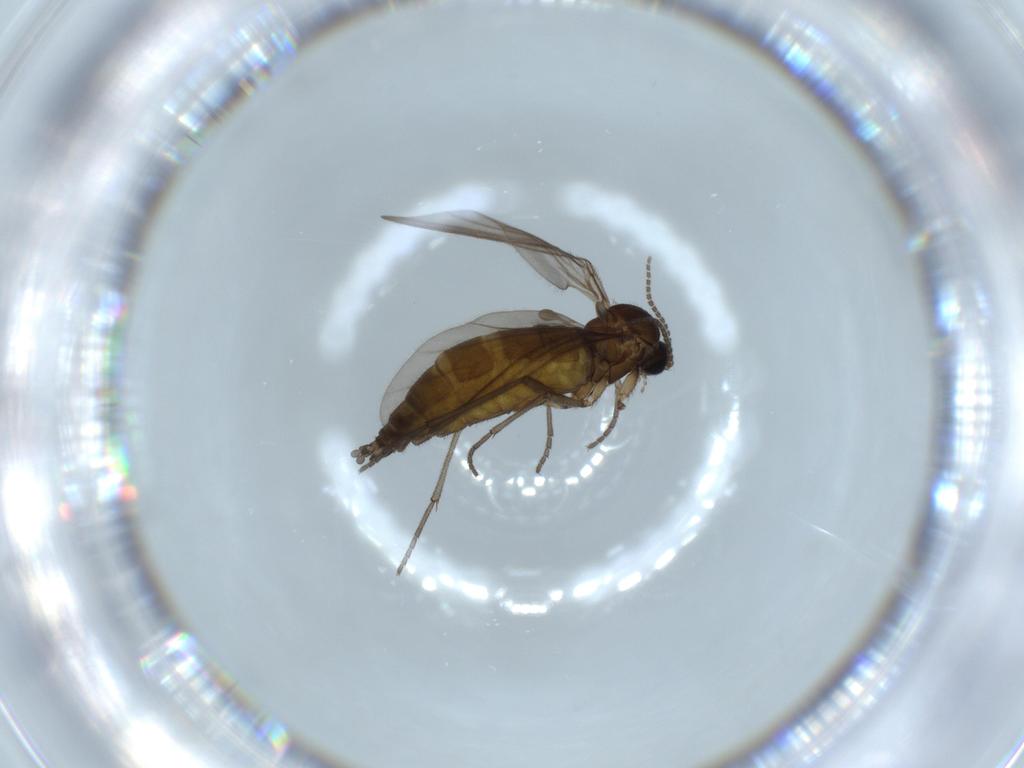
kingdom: Animalia
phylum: Arthropoda
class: Insecta
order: Diptera
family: Sciaridae
